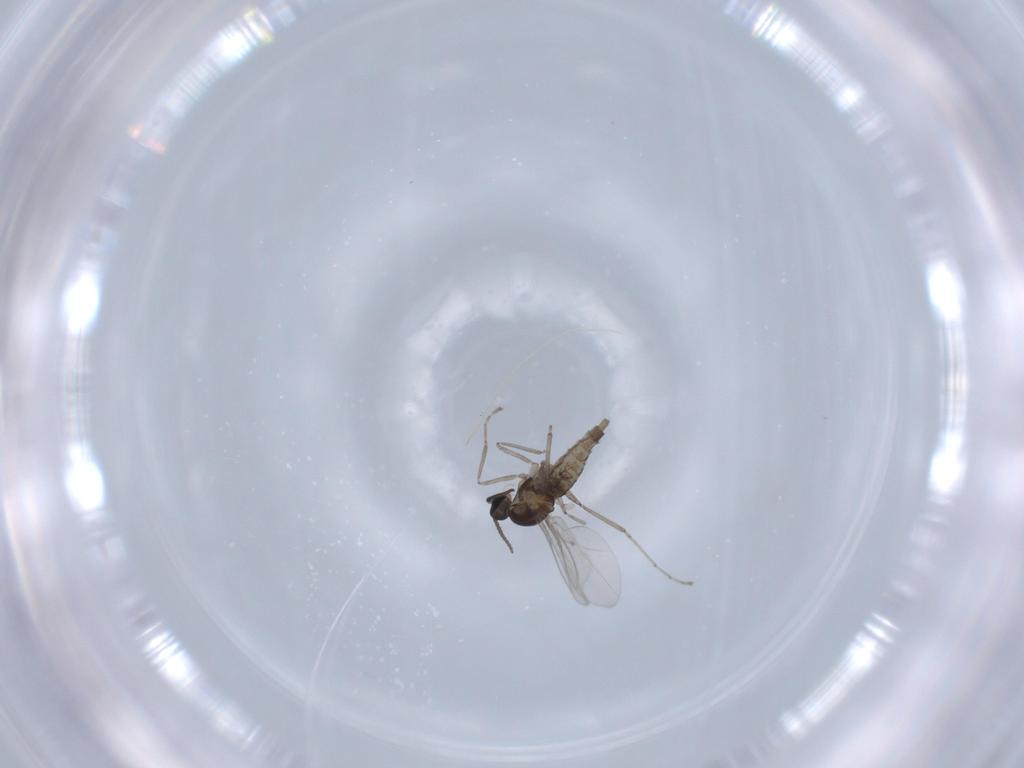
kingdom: Animalia
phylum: Arthropoda
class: Insecta
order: Diptera
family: Cecidomyiidae
